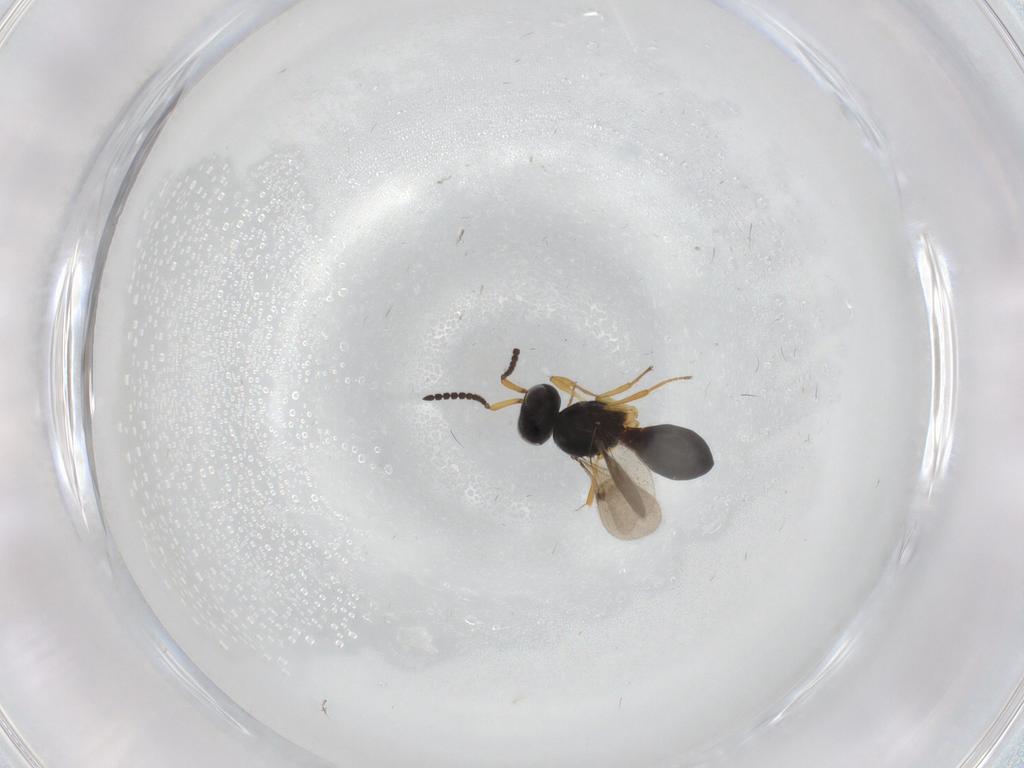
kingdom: Animalia
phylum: Arthropoda
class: Insecta
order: Hymenoptera
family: Scelionidae
